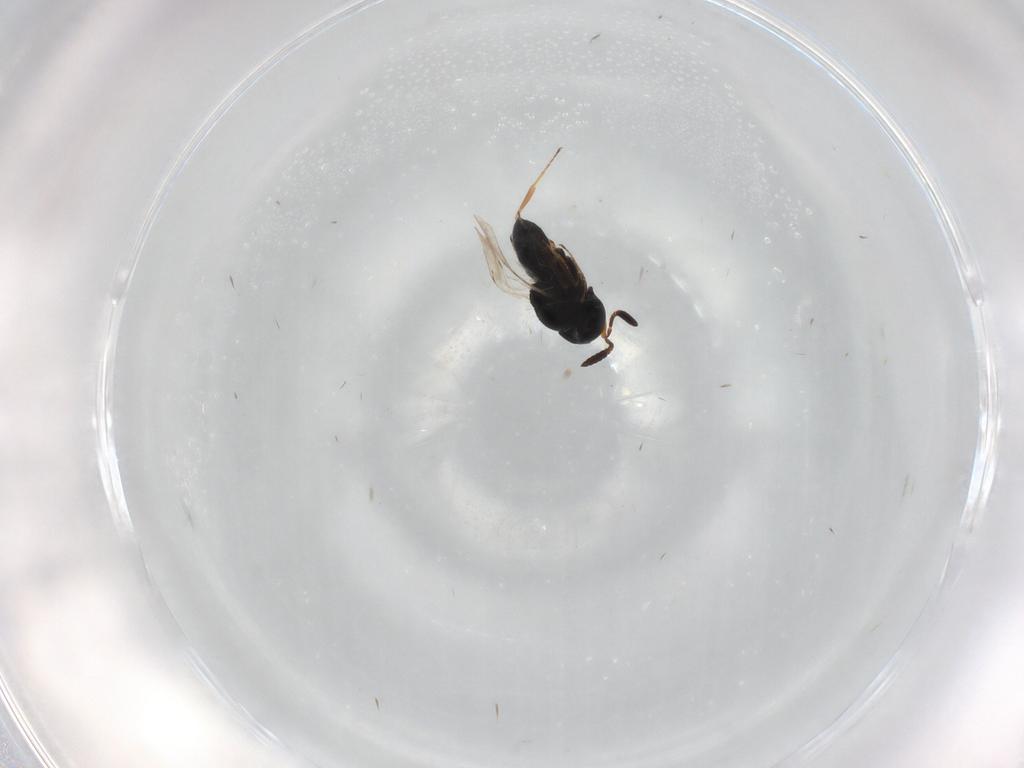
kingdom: Animalia
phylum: Arthropoda
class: Insecta
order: Coleoptera
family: Curculionidae
